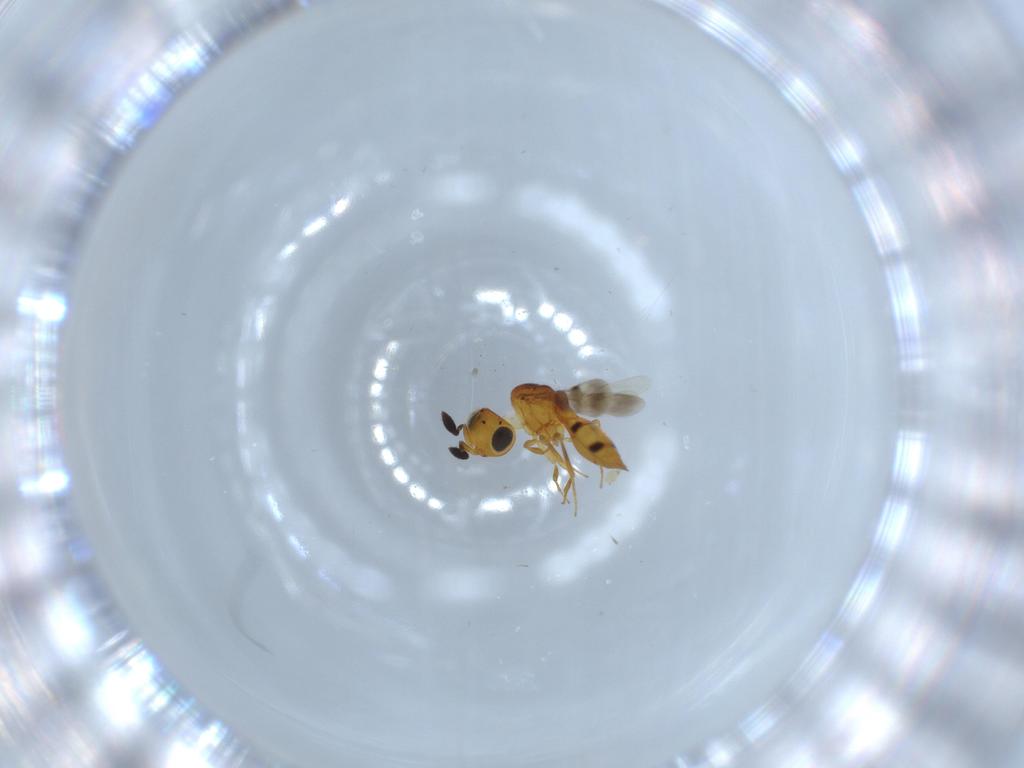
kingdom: Animalia
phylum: Arthropoda
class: Insecta
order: Hymenoptera
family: Scelionidae
